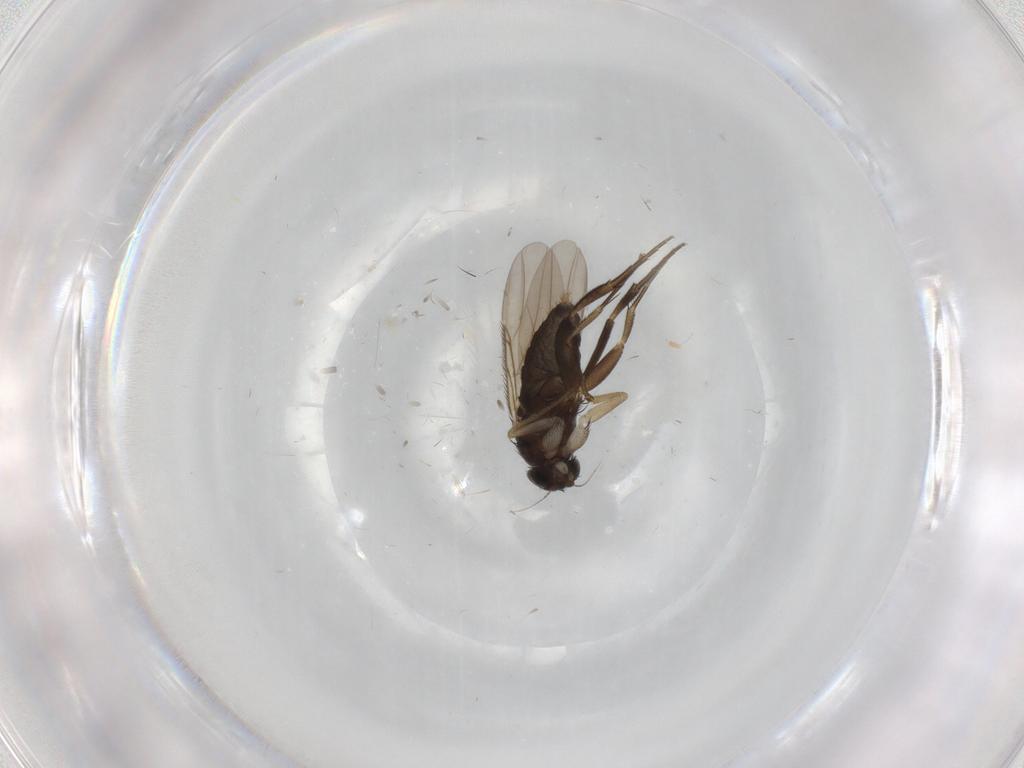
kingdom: Animalia
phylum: Arthropoda
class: Insecta
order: Diptera
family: Phoridae
